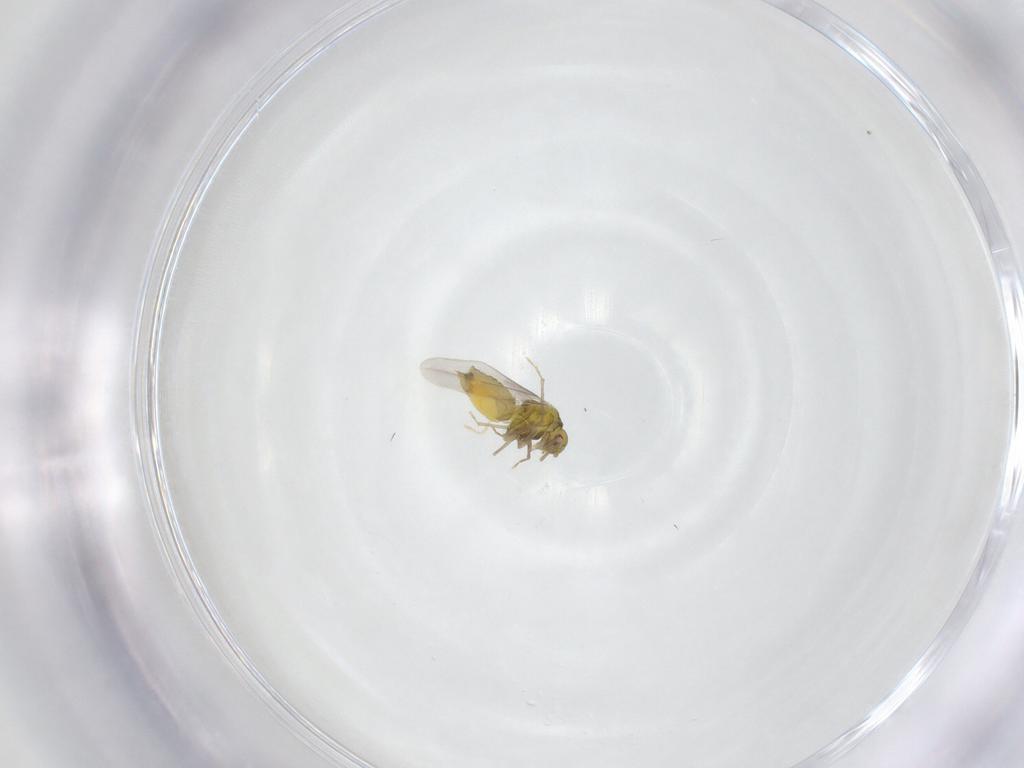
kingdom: Animalia
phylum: Arthropoda
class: Insecta
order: Hemiptera
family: Aleyrodidae
